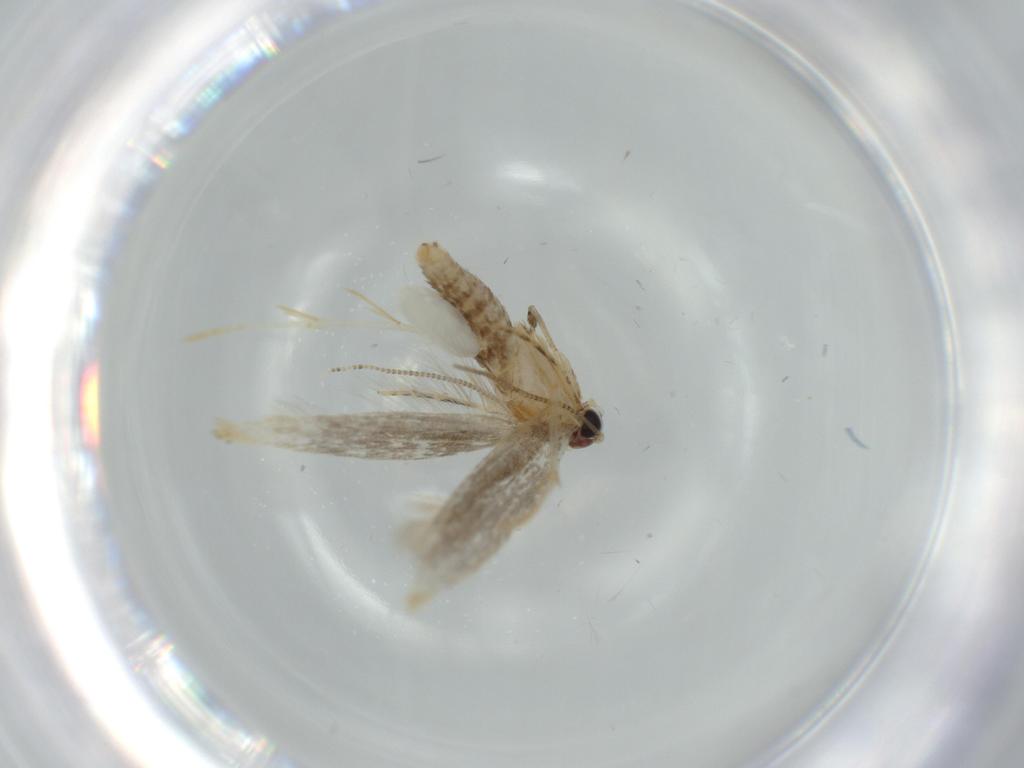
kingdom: Animalia
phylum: Arthropoda
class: Insecta
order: Lepidoptera
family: Tineidae
